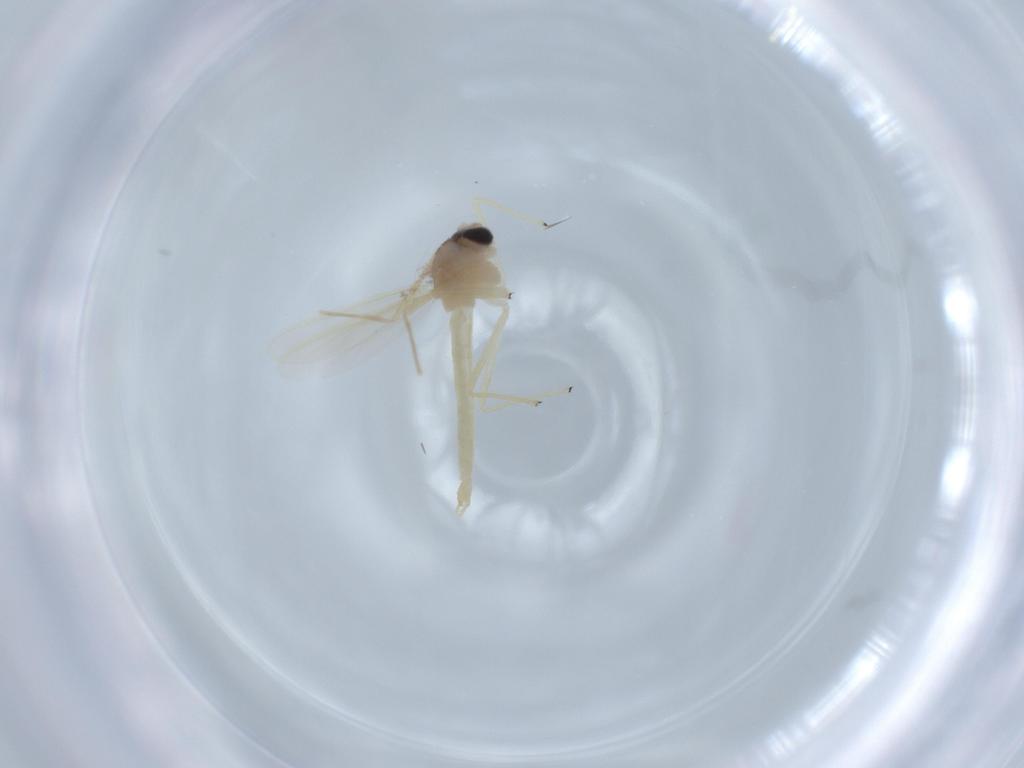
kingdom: Animalia
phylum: Arthropoda
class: Insecta
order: Diptera
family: Chironomidae
